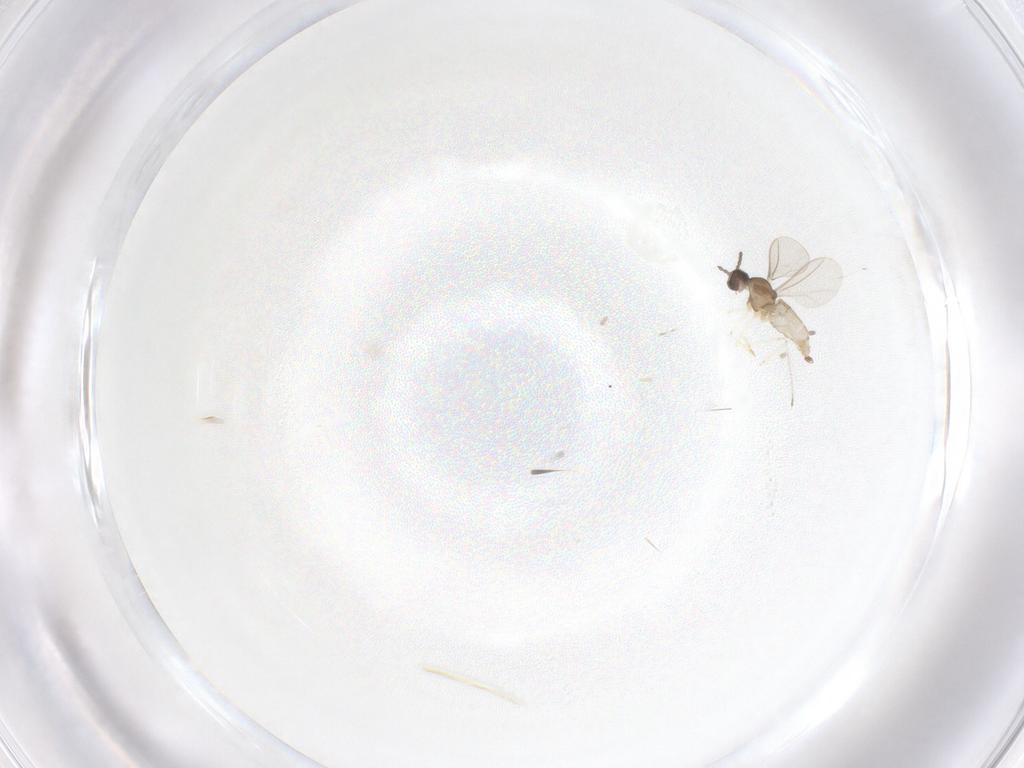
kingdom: Animalia
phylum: Arthropoda
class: Insecta
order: Diptera
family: Cecidomyiidae
